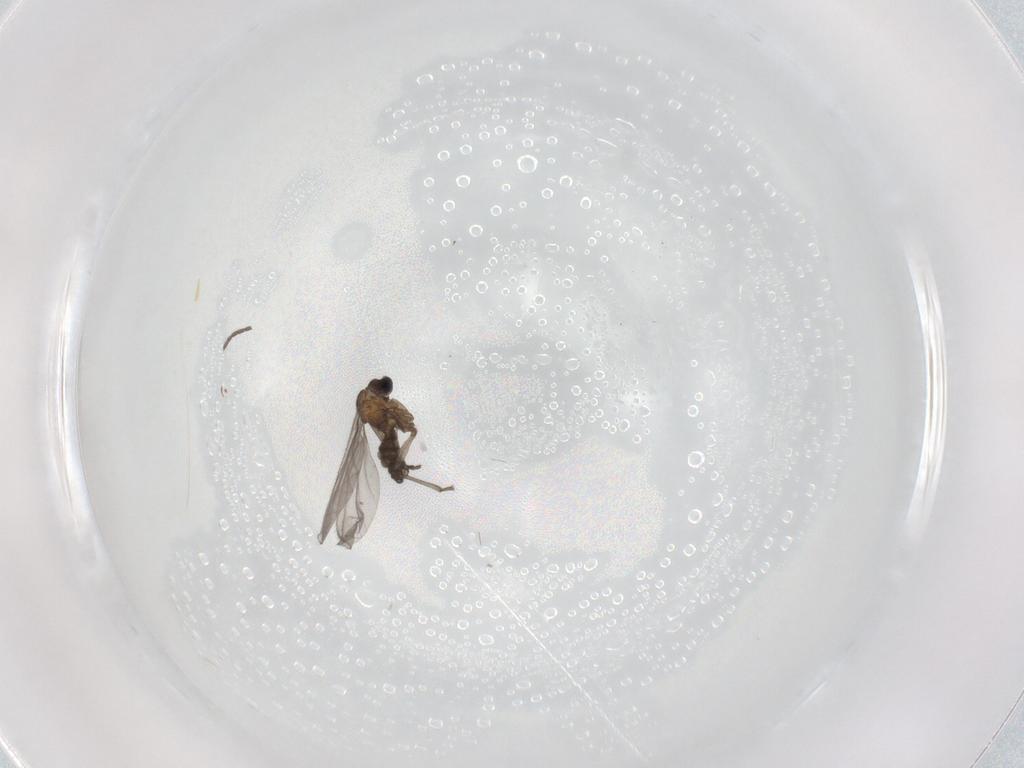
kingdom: Animalia
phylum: Arthropoda
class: Insecta
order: Diptera
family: Sciaridae
